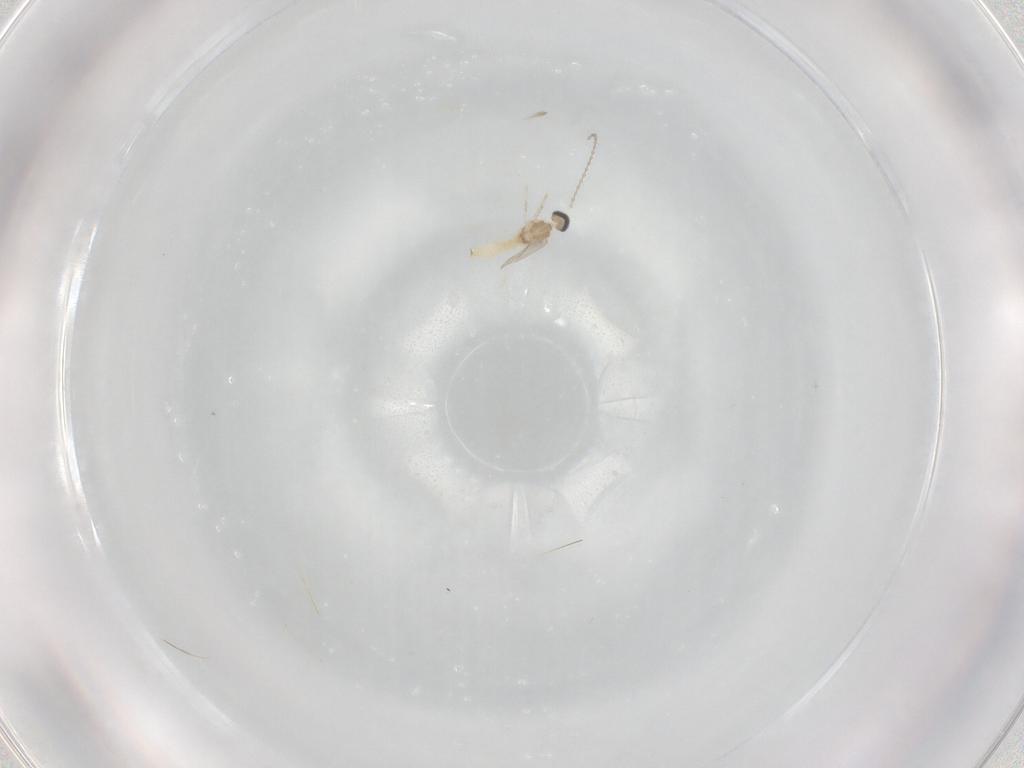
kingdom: Animalia
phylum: Arthropoda
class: Insecta
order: Diptera
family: Cecidomyiidae
